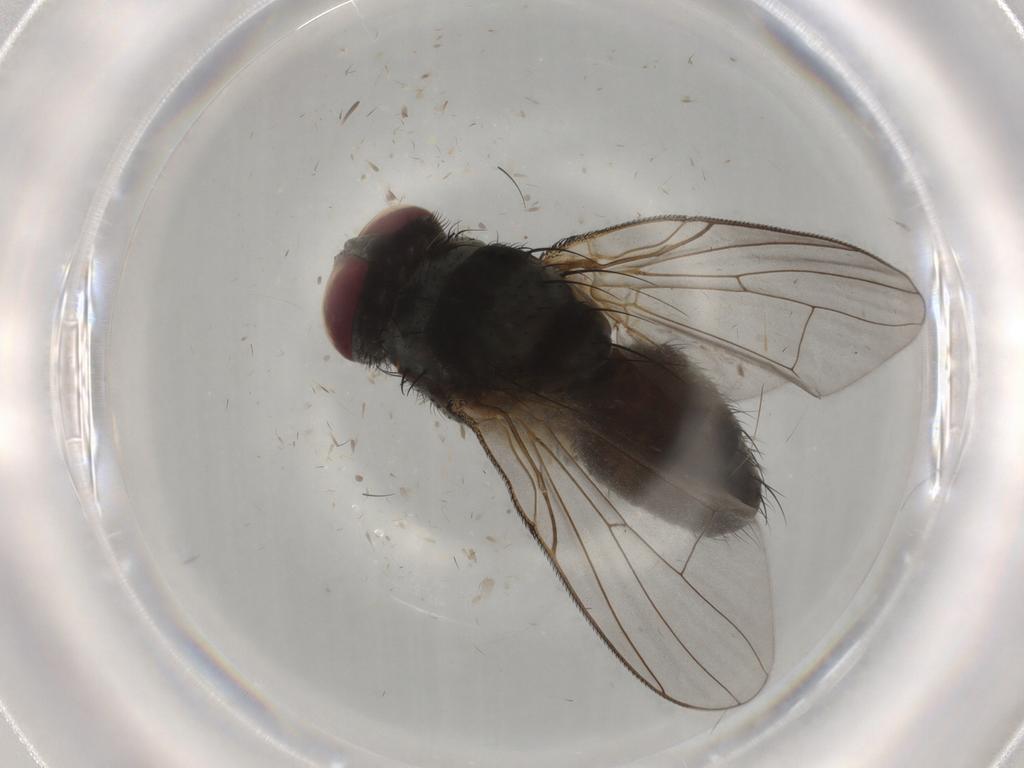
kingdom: Animalia
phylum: Arthropoda
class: Insecta
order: Diptera
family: Muscidae
